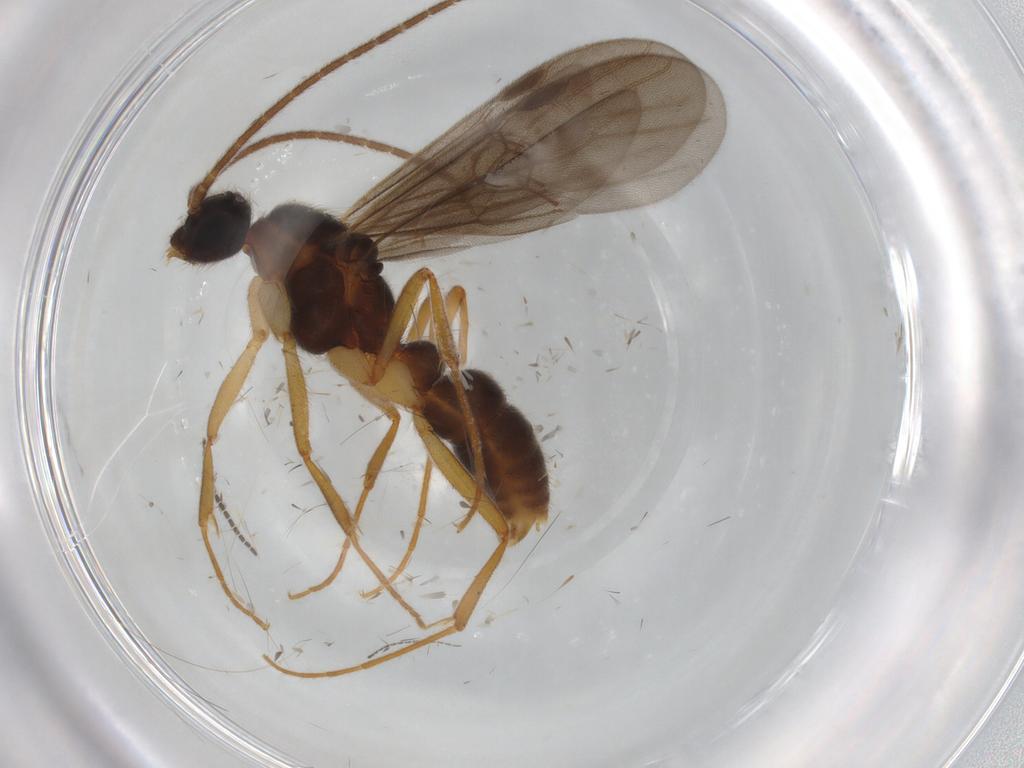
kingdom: Animalia
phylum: Arthropoda
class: Insecta
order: Hymenoptera
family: Formicidae
